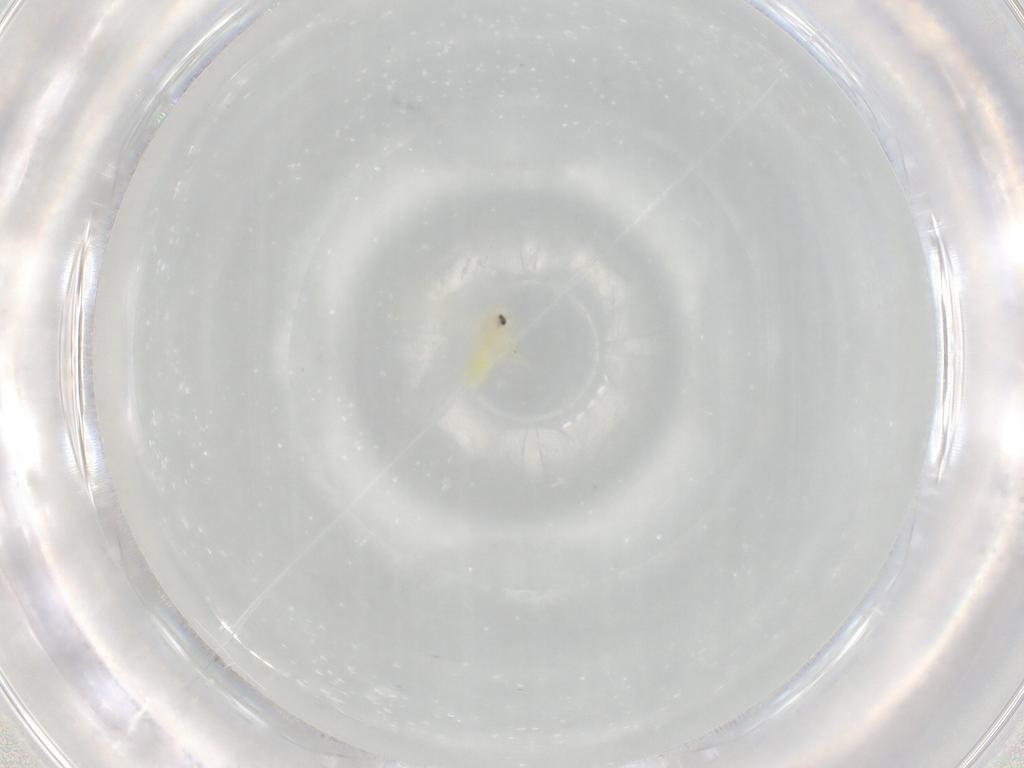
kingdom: Animalia
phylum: Arthropoda
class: Insecta
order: Hemiptera
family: Aleyrodidae
